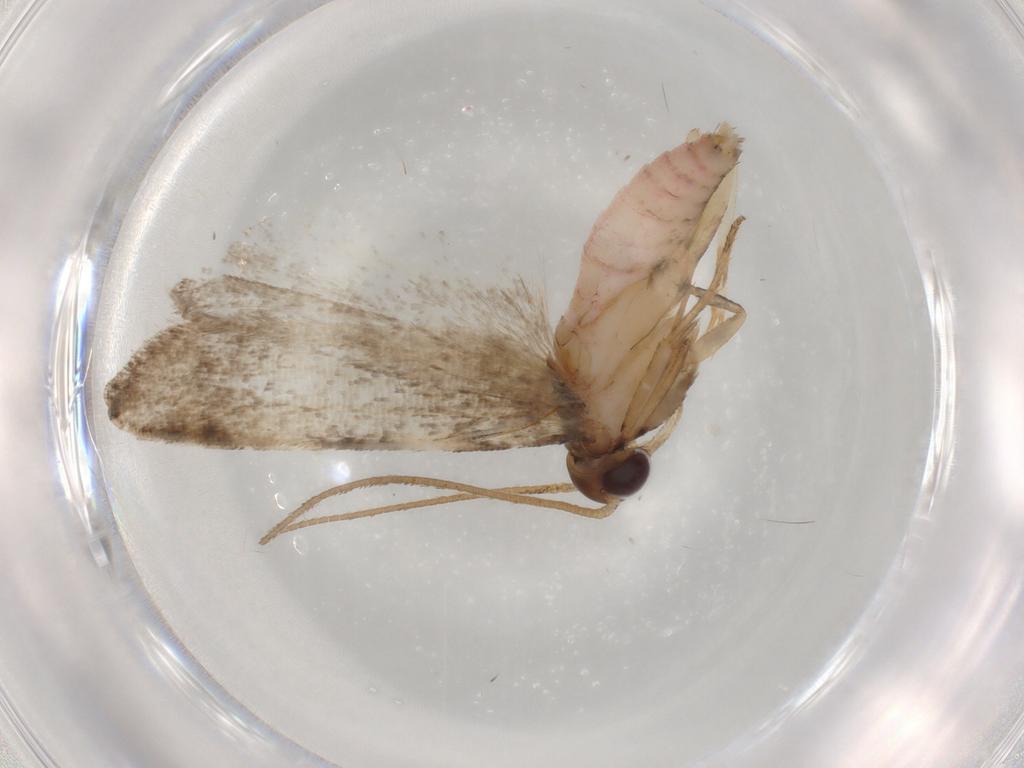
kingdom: Animalia
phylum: Arthropoda
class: Insecta
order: Lepidoptera
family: Gelechiidae
